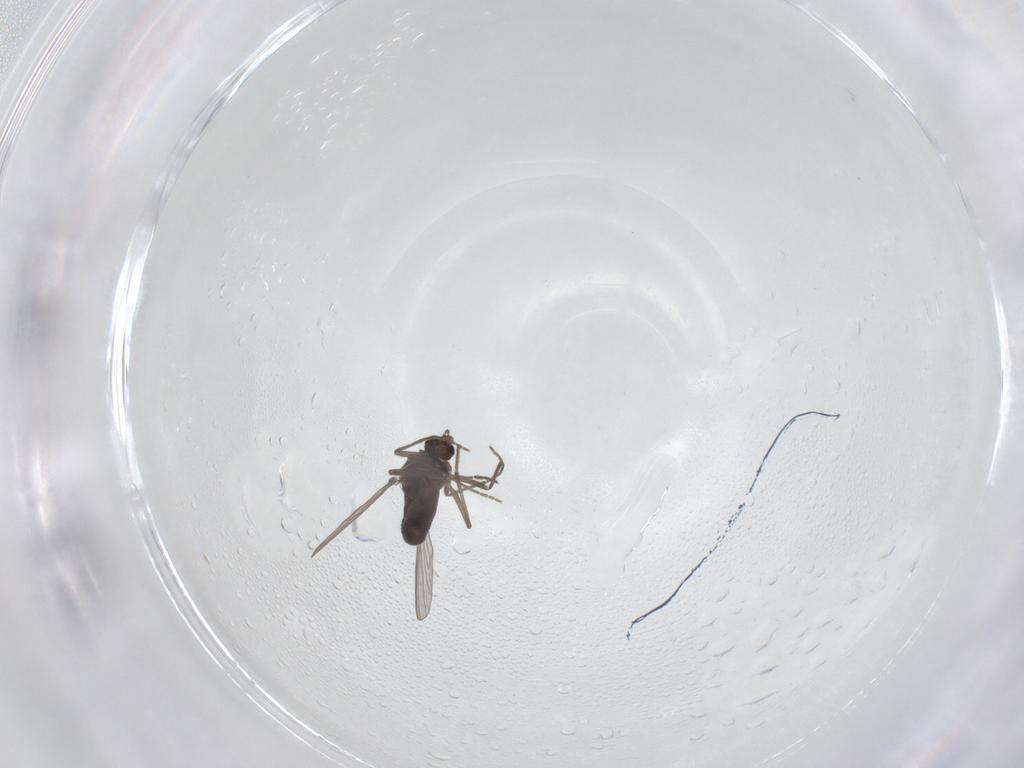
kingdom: Animalia
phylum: Arthropoda
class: Insecta
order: Diptera
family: Chironomidae
